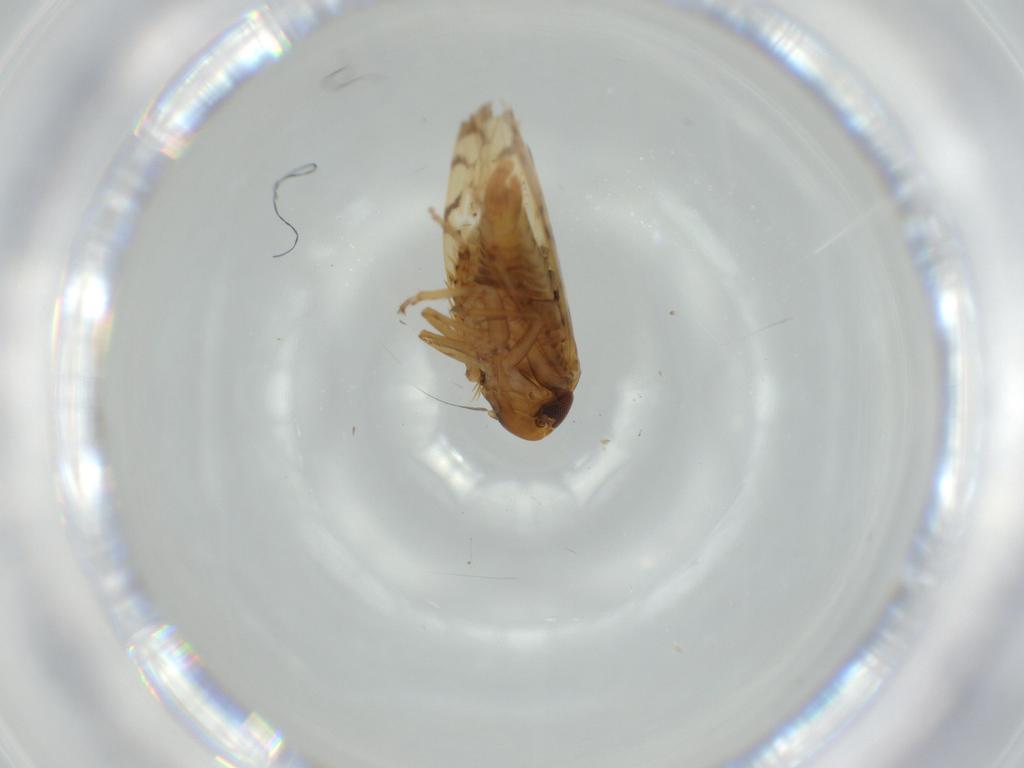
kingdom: Animalia
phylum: Arthropoda
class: Insecta
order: Hemiptera
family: Cicadellidae
